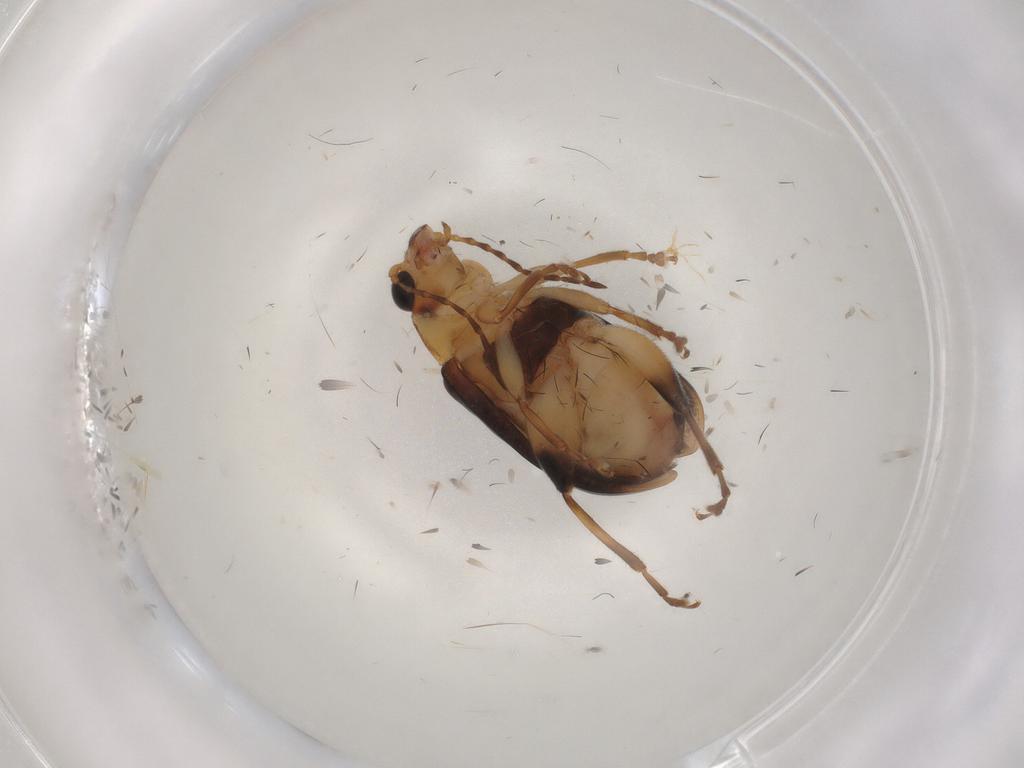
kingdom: Animalia
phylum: Arthropoda
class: Insecta
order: Coleoptera
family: Chrysomelidae
